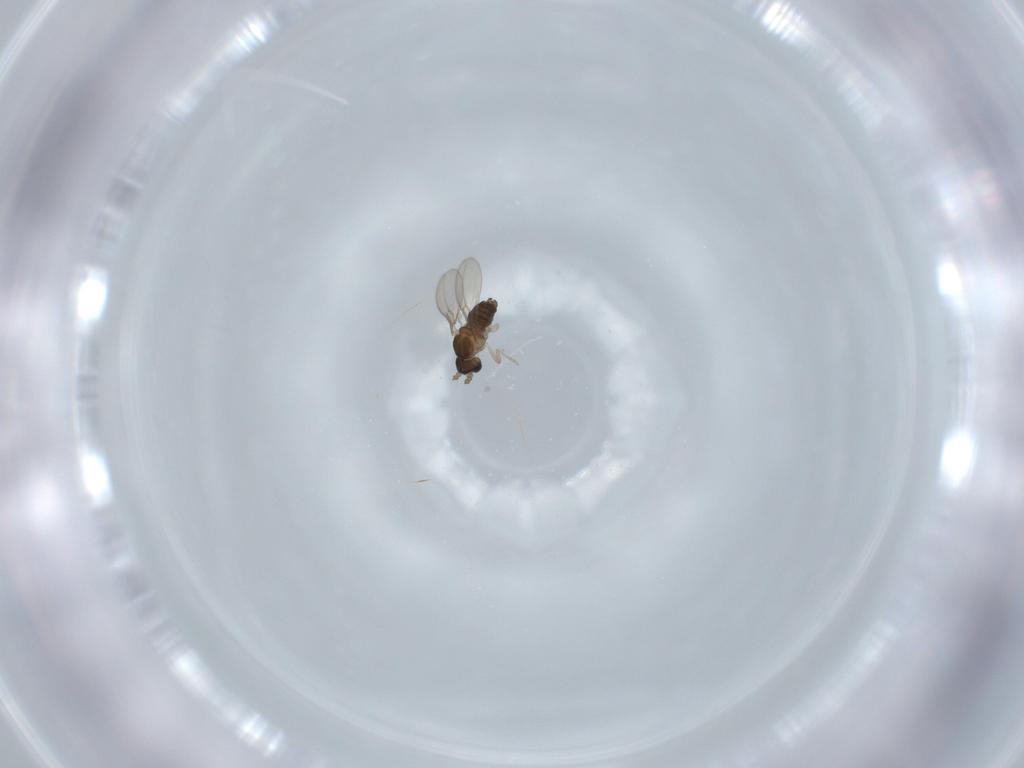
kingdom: Animalia
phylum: Arthropoda
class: Insecta
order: Diptera
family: Cecidomyiidae
